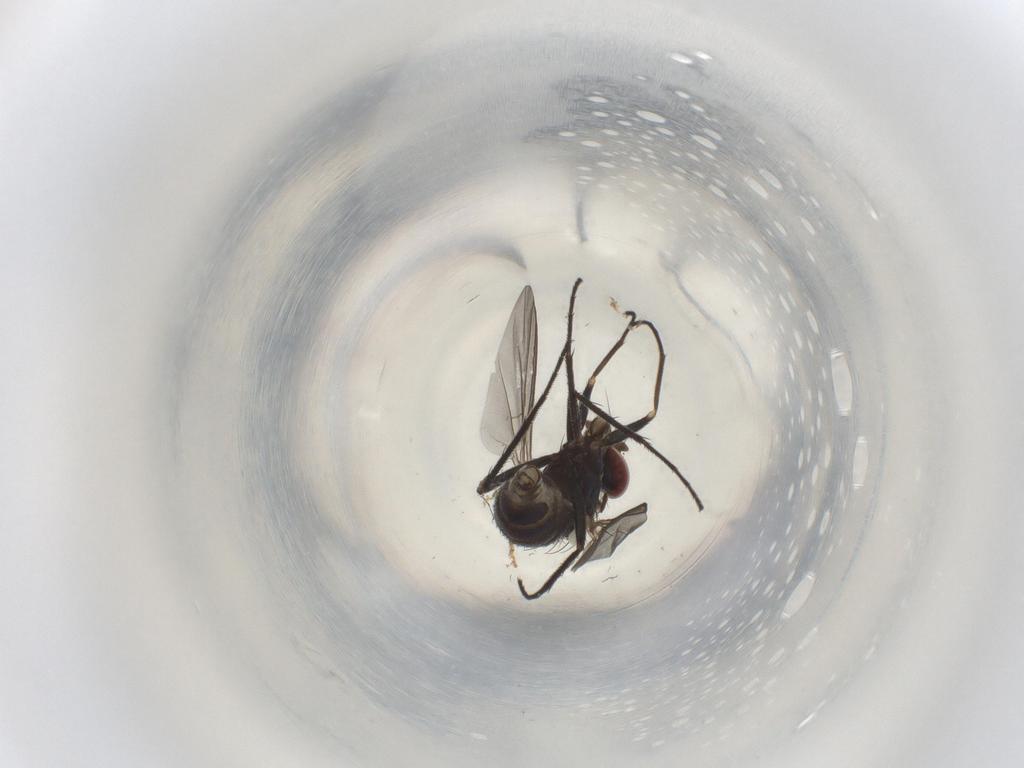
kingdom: Animalia
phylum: Arthropoda
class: Insecta
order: Diptera
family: Dolichopodidae
